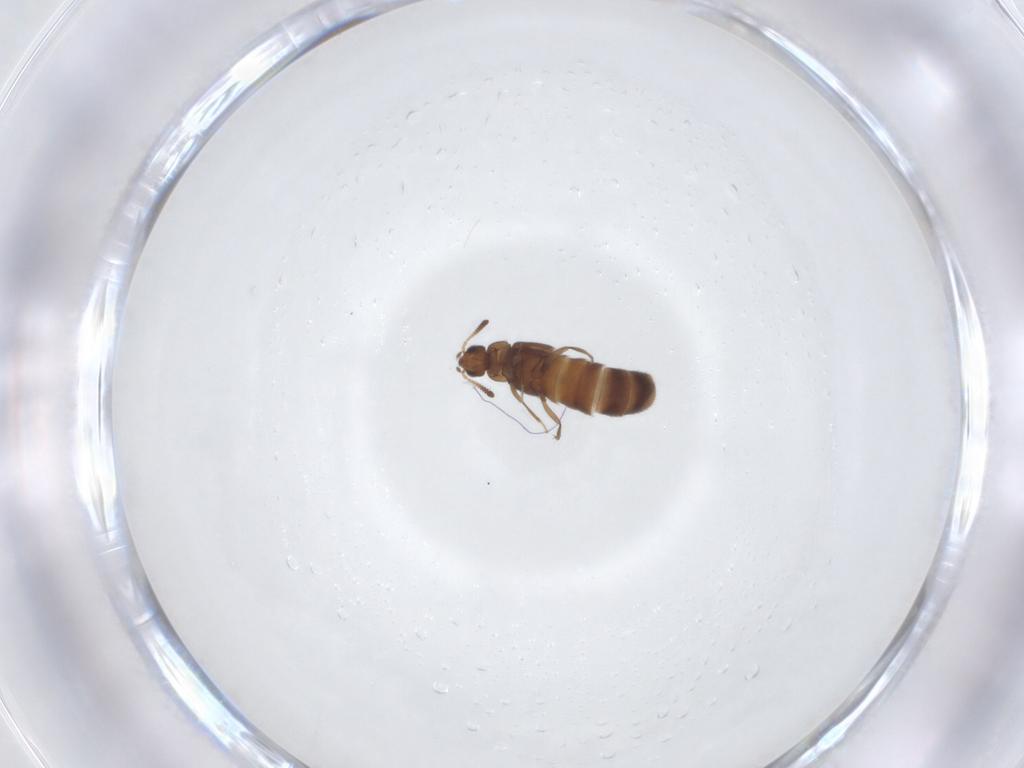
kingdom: Animalia
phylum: Arthropoda
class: Insecta
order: Coleoptera
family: Staphylinidae
